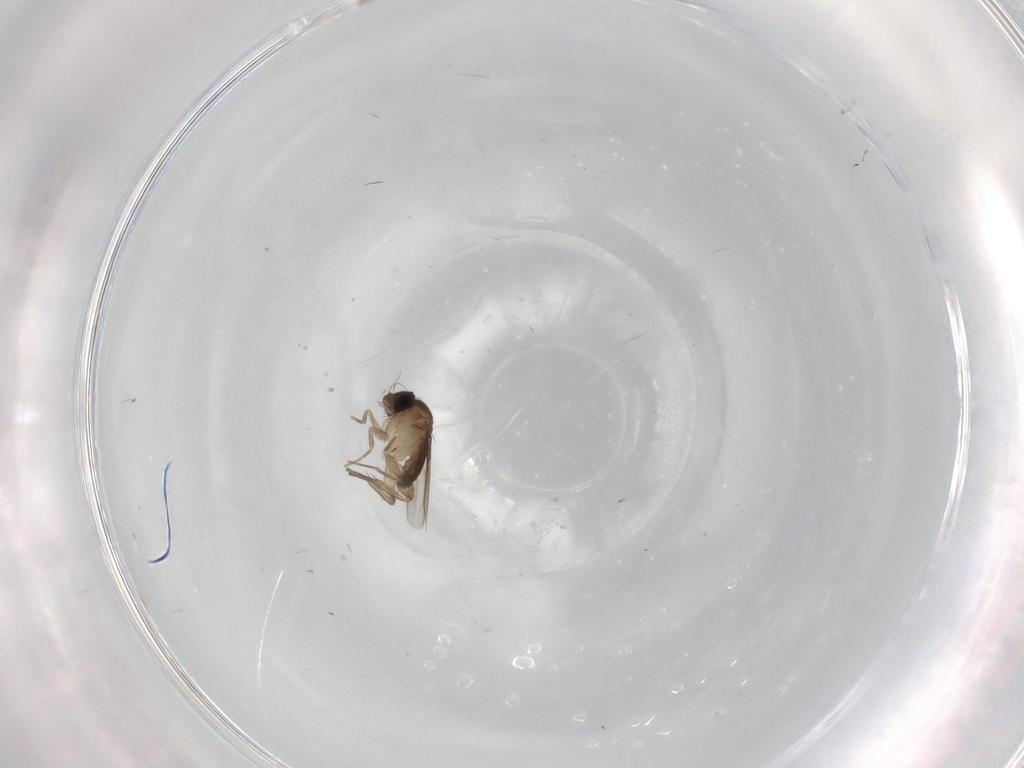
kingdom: Animalia
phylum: Arthropoda
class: Insecta
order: Diptera
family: Phoridae
